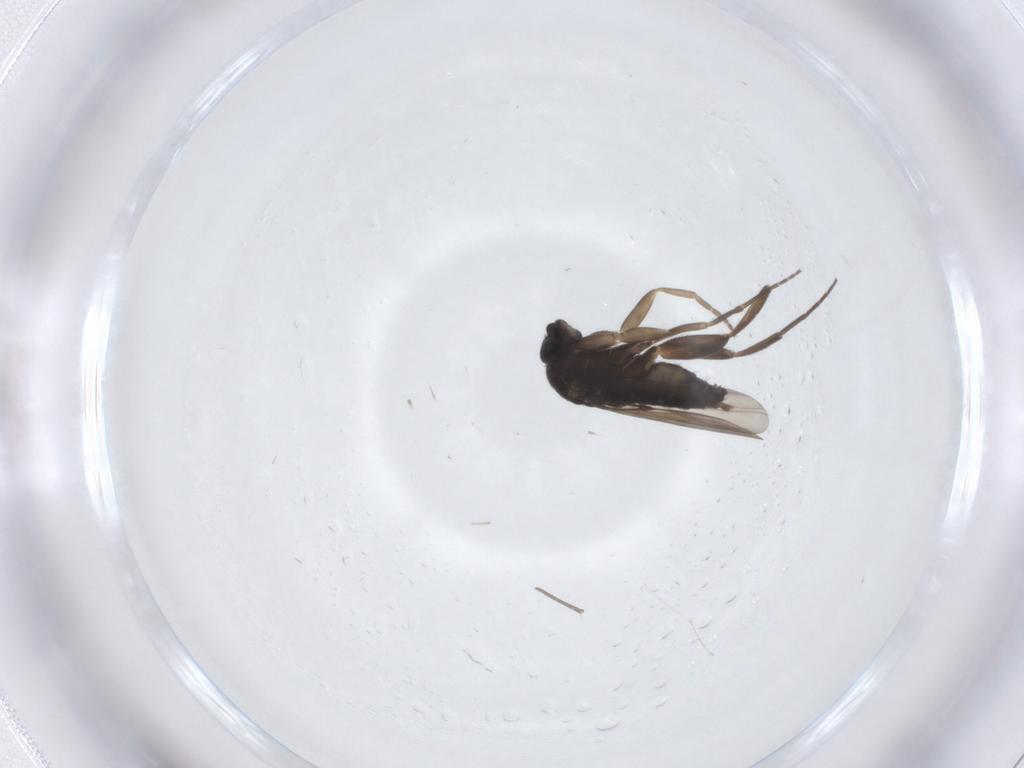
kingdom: Animalia
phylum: Arthropoda
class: Insecta
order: Diptera
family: Phoridae
